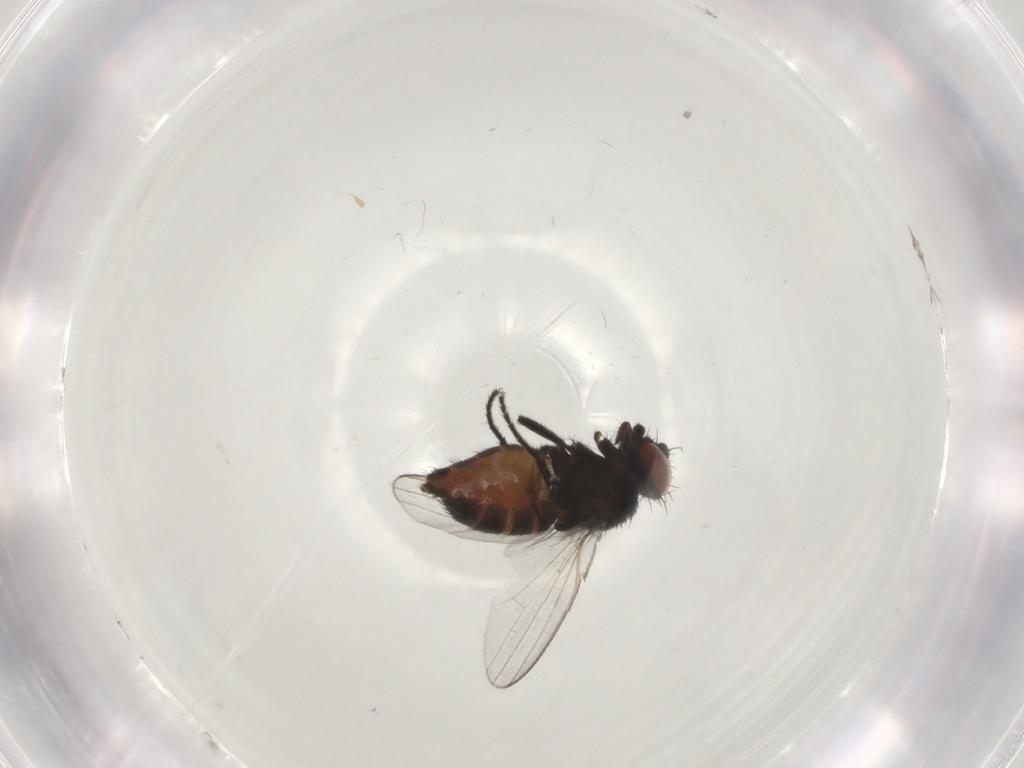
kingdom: Animalia
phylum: Arthropoda
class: Insecta
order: Diptera
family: Milichiidae
